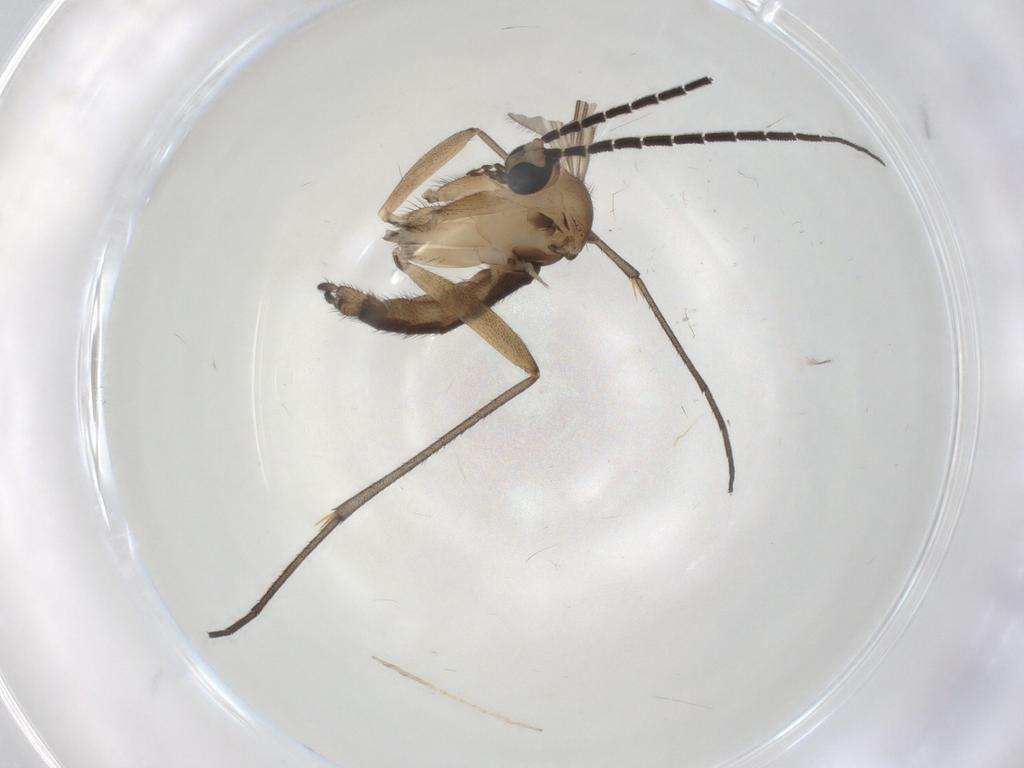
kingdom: Animalia
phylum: Arthropoda
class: Insecta
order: Diptera
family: Sciaridae
